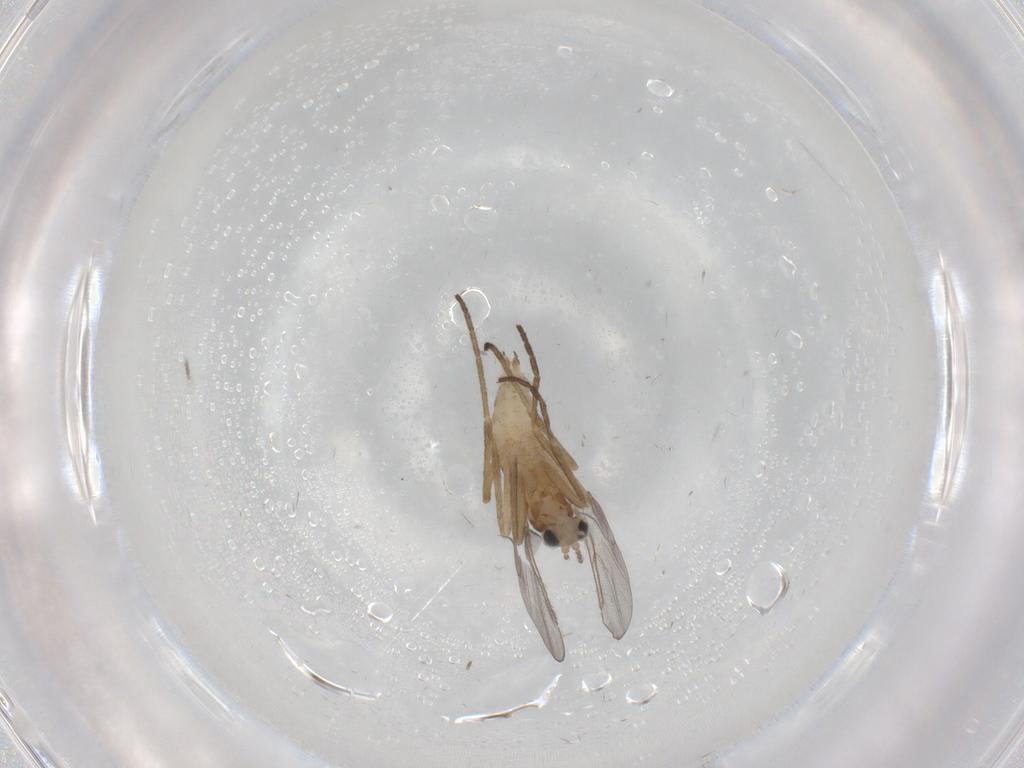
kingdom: Animalia
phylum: Arthropoda
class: Insecta
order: Diptera
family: Cecidomyiidae
